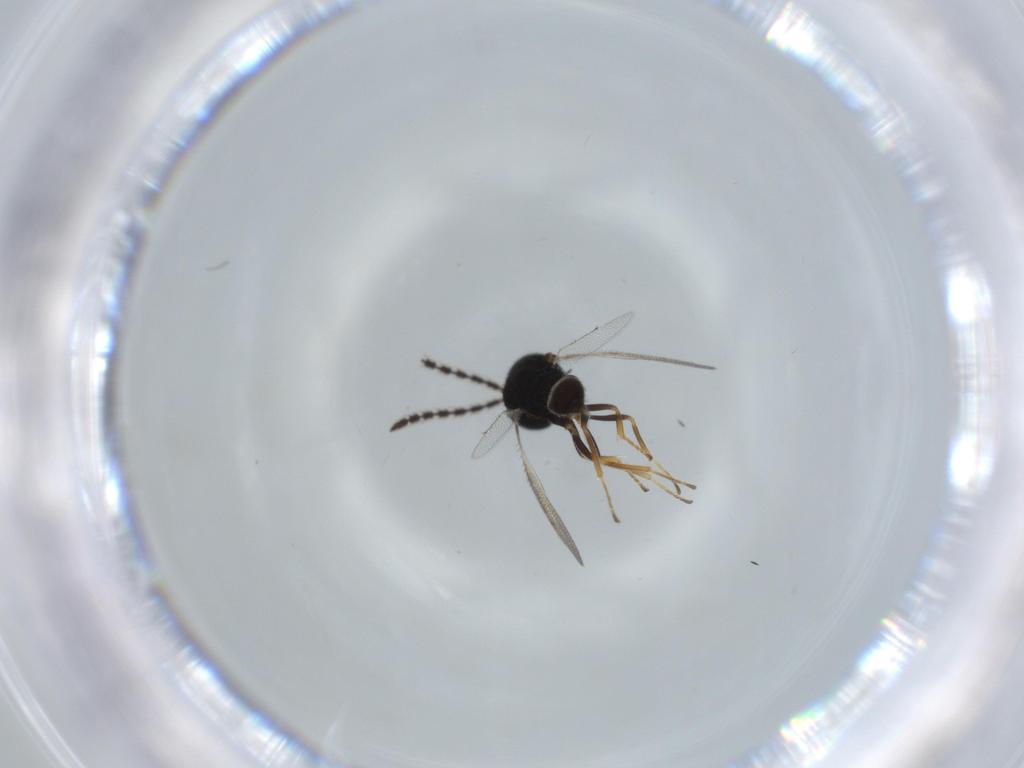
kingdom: Animalia
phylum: Arthropoda
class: Insecta
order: Hymenoptera
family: Pteromalidae
